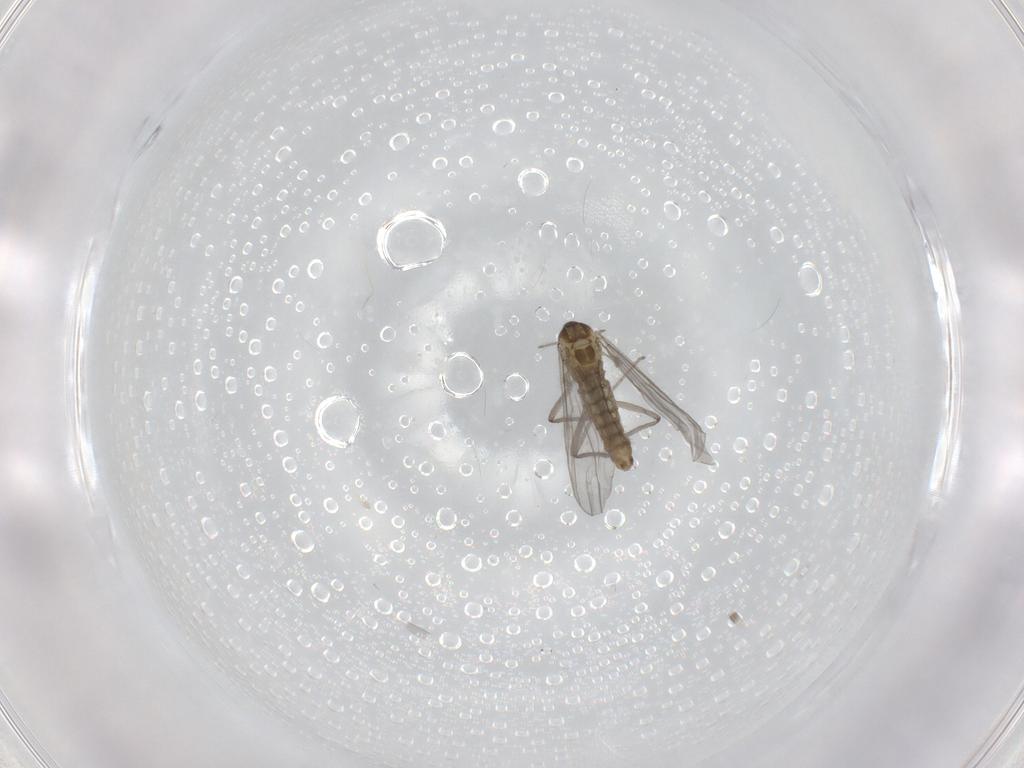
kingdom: Animalia
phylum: Arthropoda
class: Insecta
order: Diptera
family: Chironomidae
